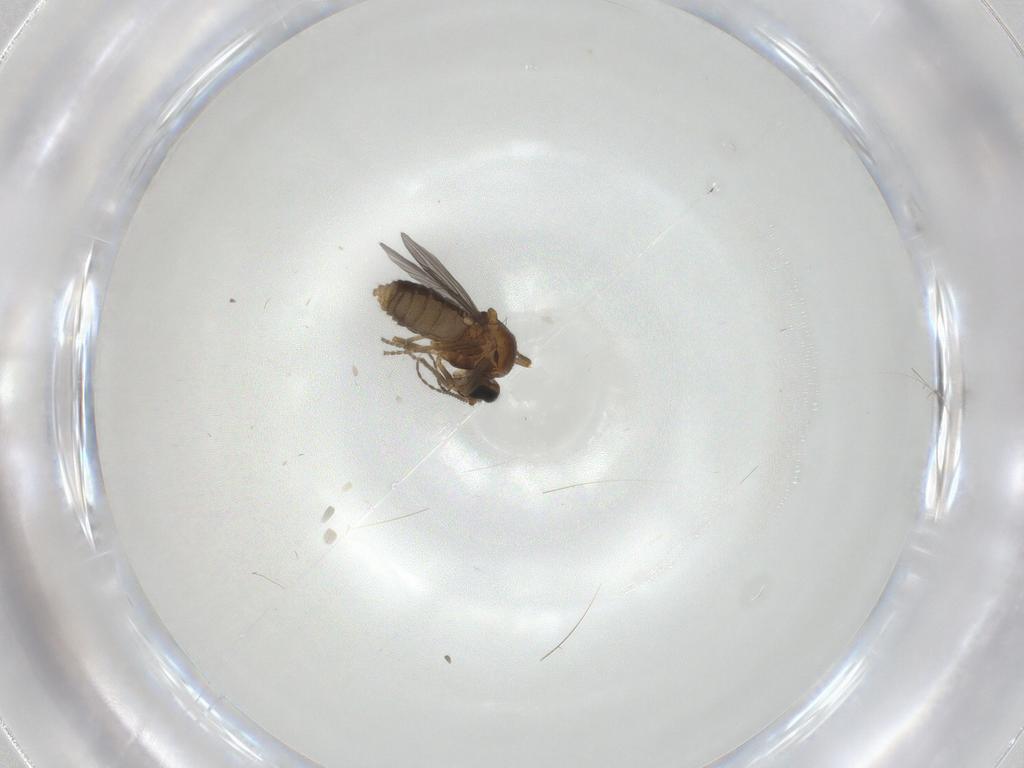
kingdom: Animalia
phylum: Arthropoda
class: Insecta
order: Diptera
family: Ceratopogonidae
